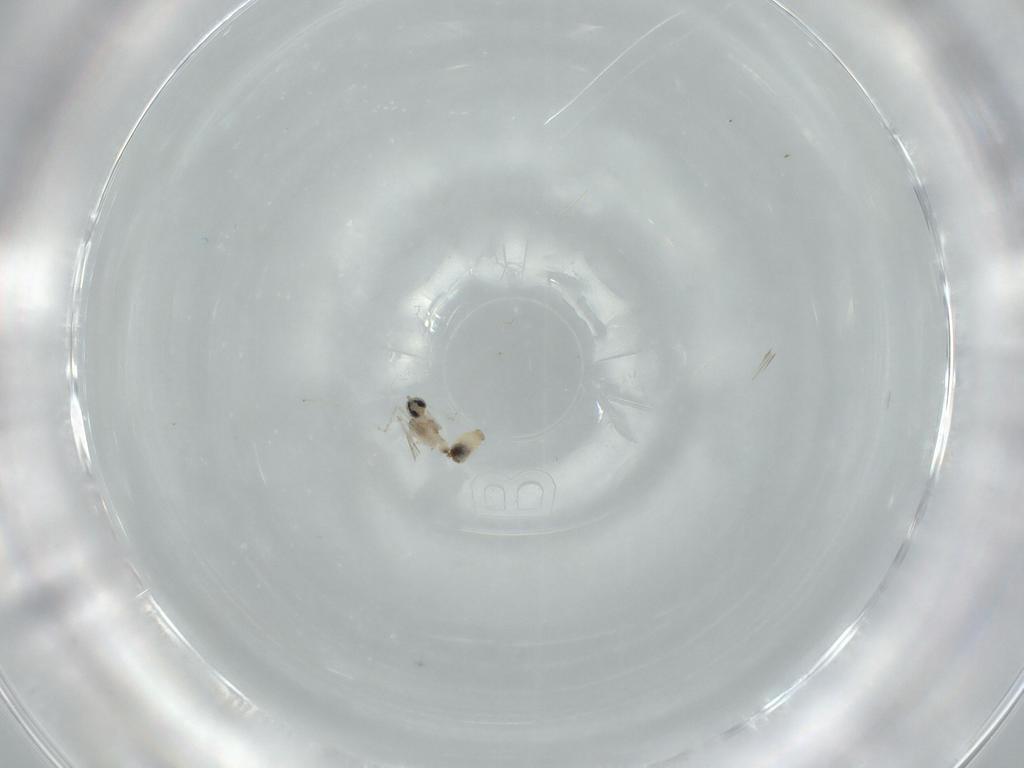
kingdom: Animalia
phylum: Arthropoda
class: Insecta
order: Diptera
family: Cecidomyiidae
